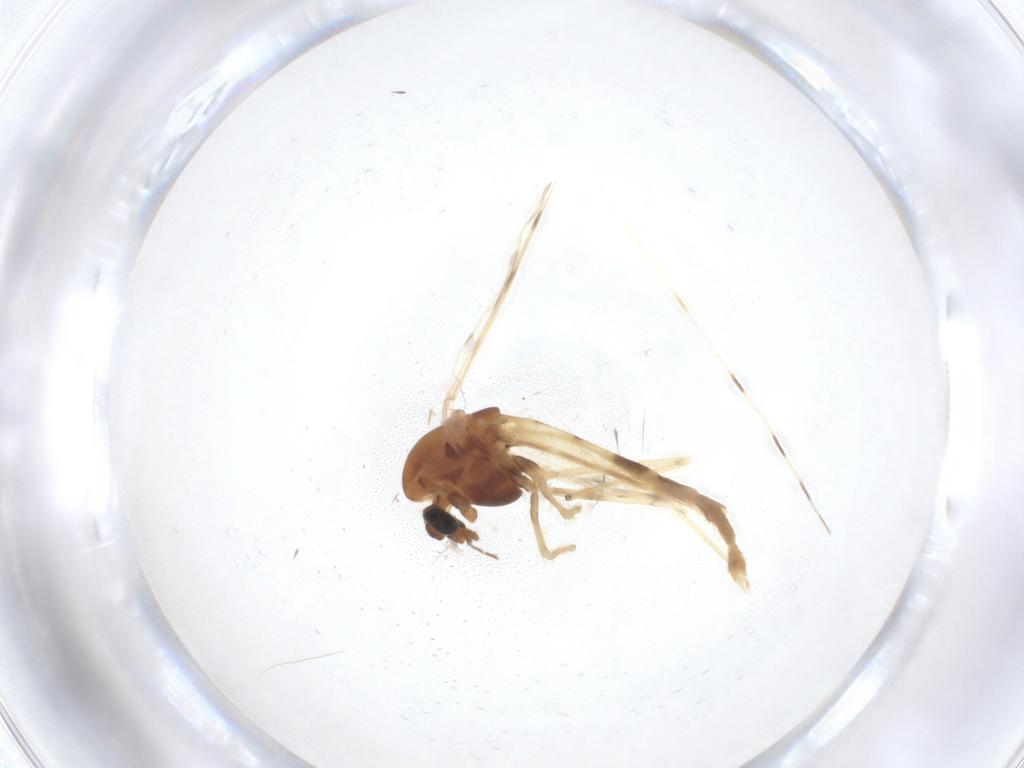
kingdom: Animalia
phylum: Arthropoda
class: Insecta
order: Diptera
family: Chironomidae
